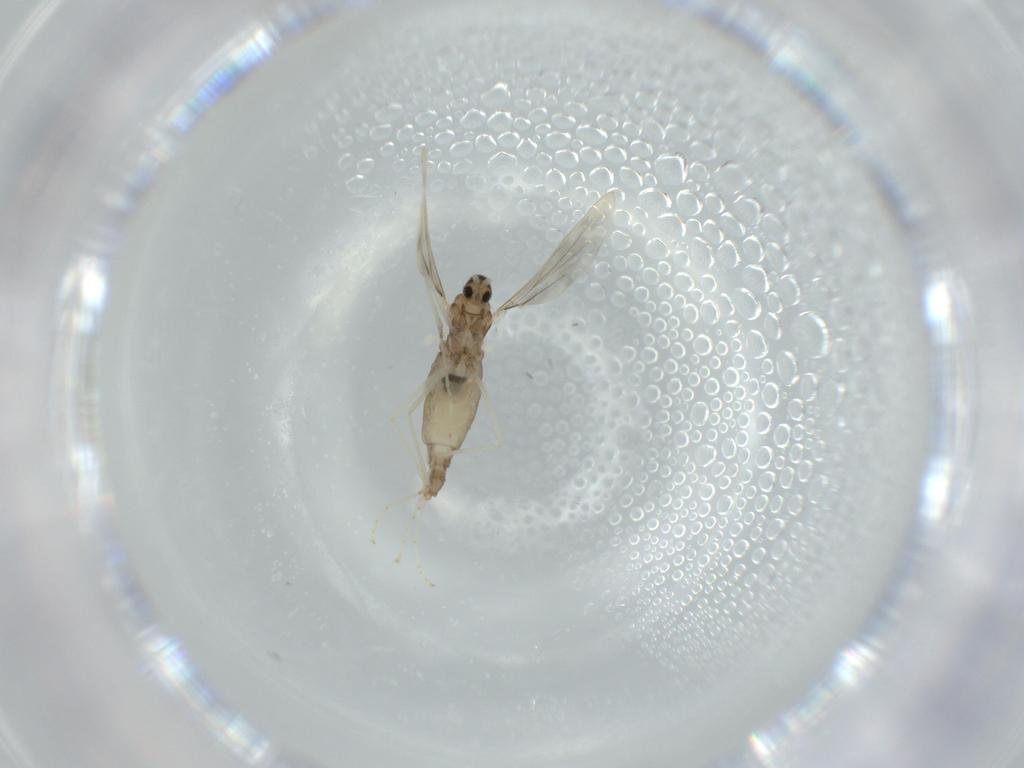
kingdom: Animalia
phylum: Arthropoda
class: Insecta
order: Diptera
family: Cecidomyiidae
